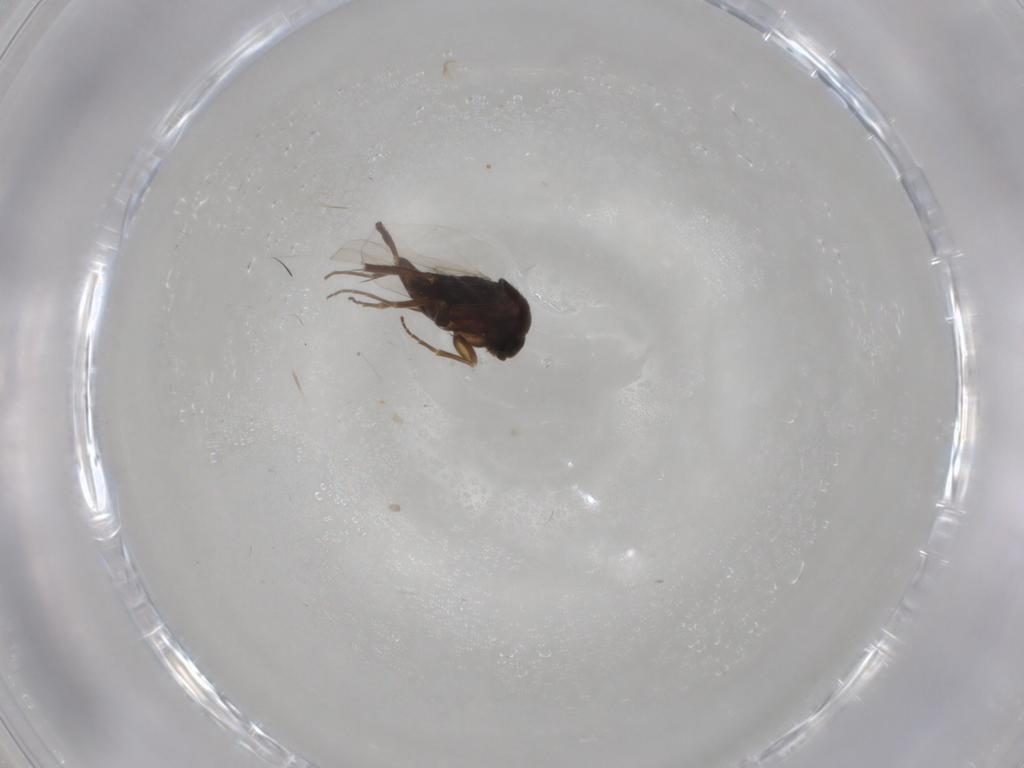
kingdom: Animalia
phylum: Arthropoda
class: Insecta
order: Diptera
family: Phoridae
